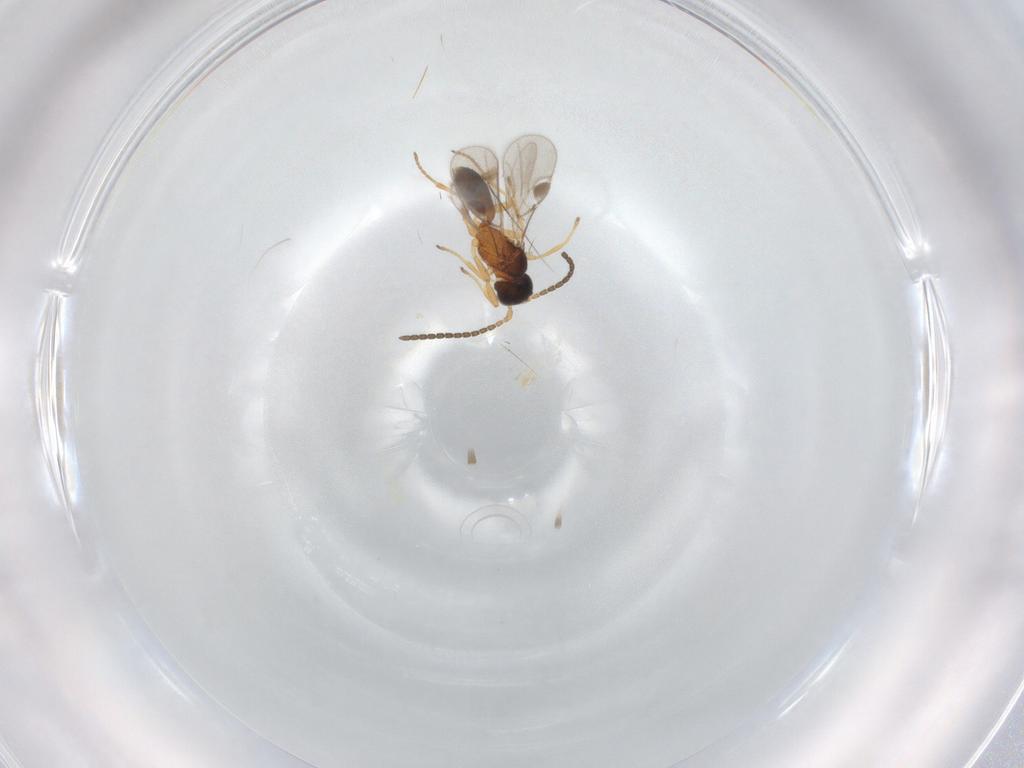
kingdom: Animalia
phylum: Arthropoda
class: Insecta
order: Hymenoptera
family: Braconidae
